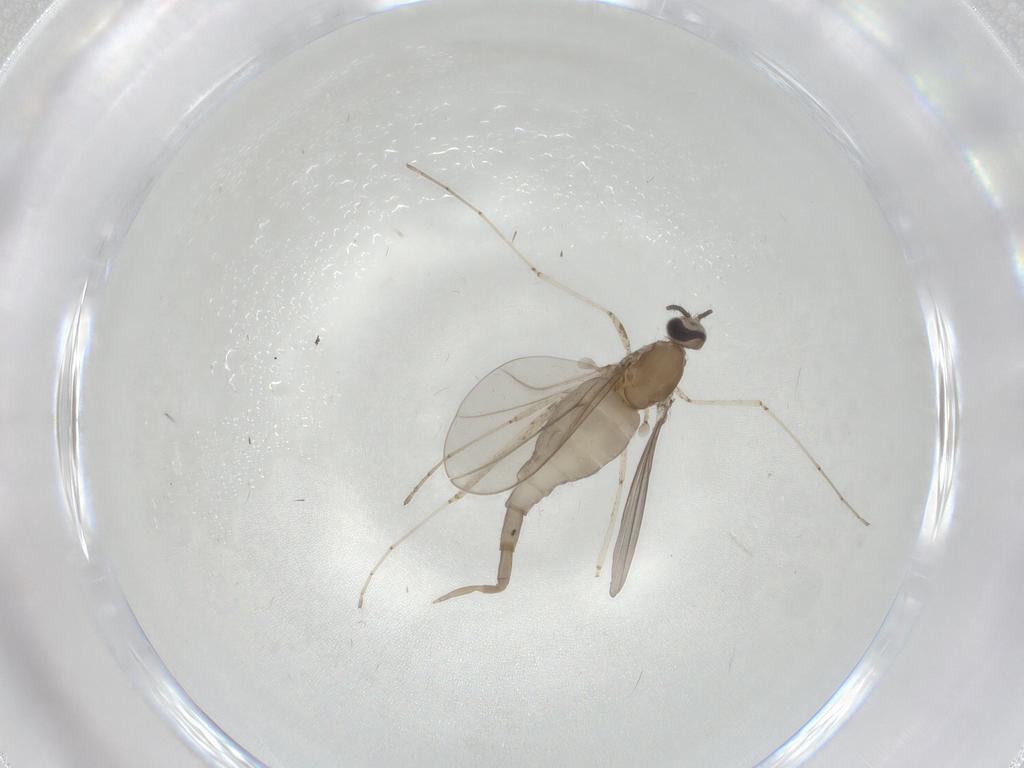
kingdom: Animalia
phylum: Arthropoda
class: Insecta
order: Diptera
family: Cecidomyiidae
